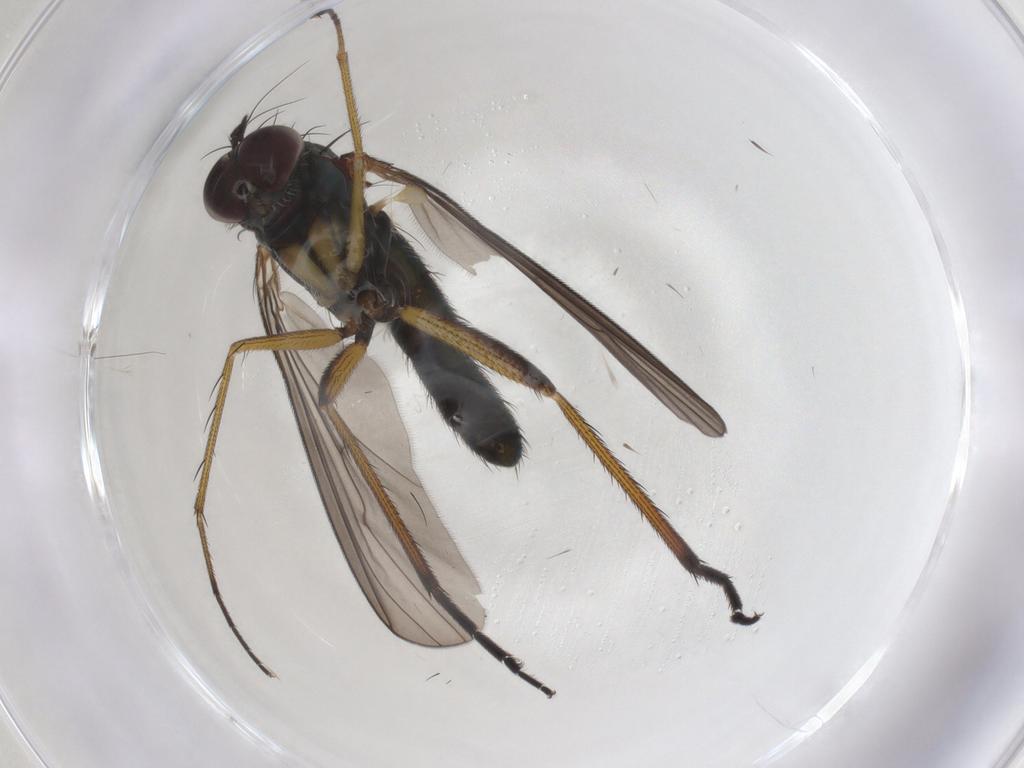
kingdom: Animalia
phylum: Arthropoda
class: Insecta
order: Diptera
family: Dolichopodidae
